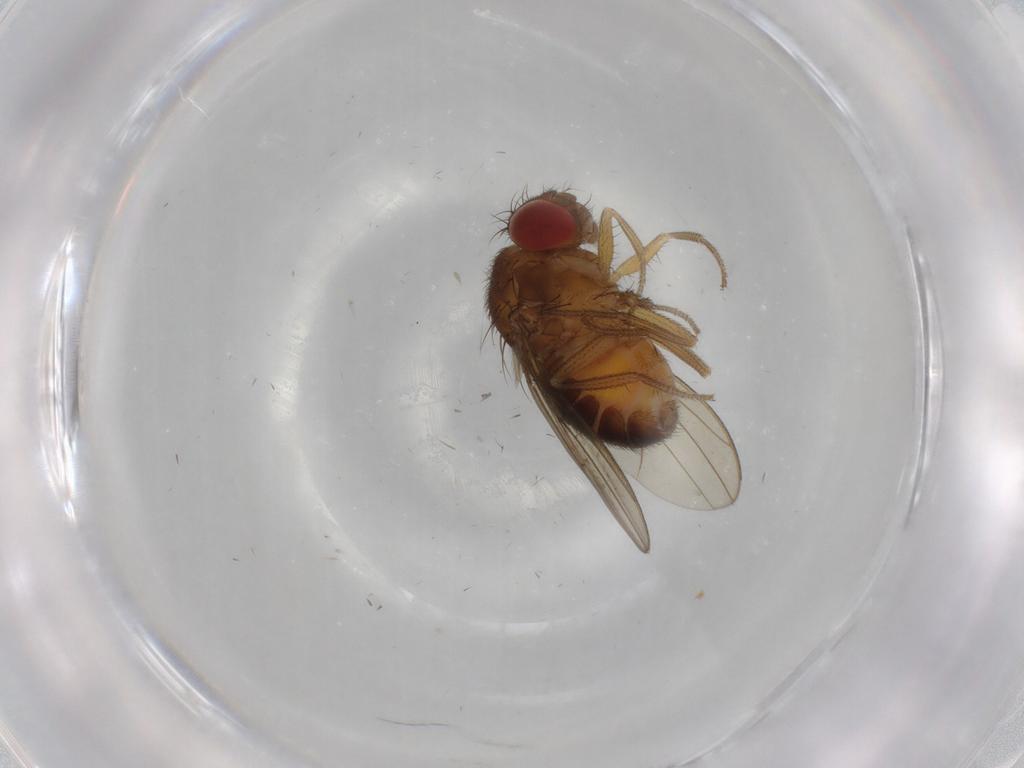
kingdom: Animalia
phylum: Arthropoda
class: Insecta
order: Diptera
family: Drosophilidae
